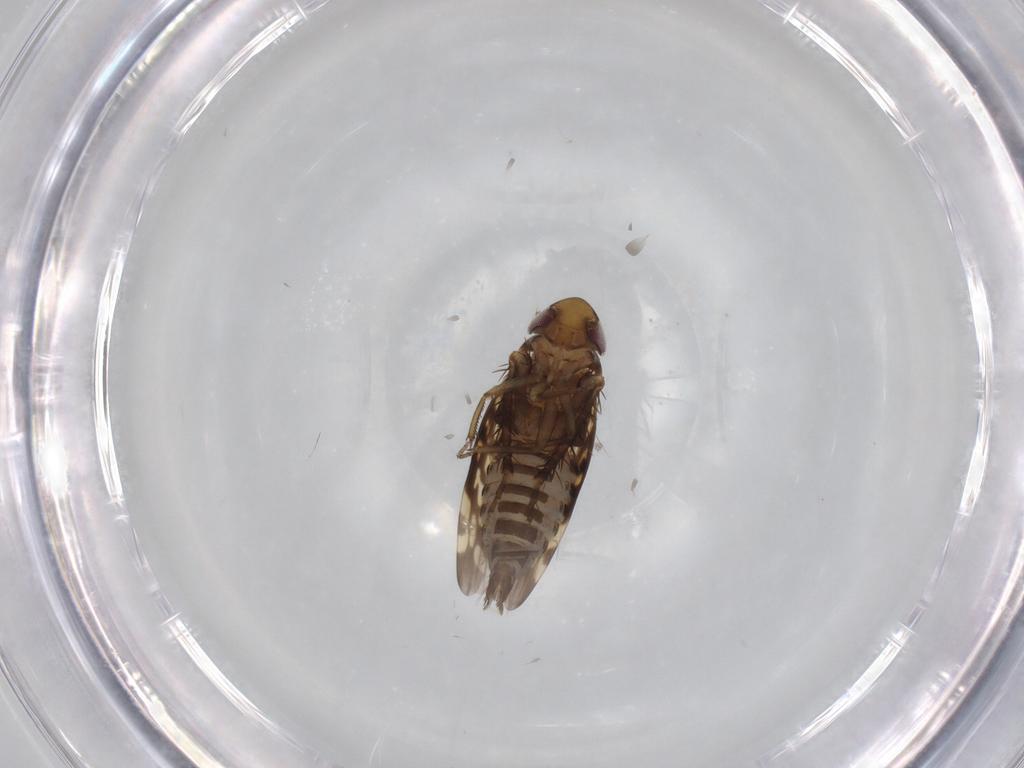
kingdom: Animalia
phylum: Arthropoda
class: Insecta
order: Hemiptera
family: Cicadellidae
